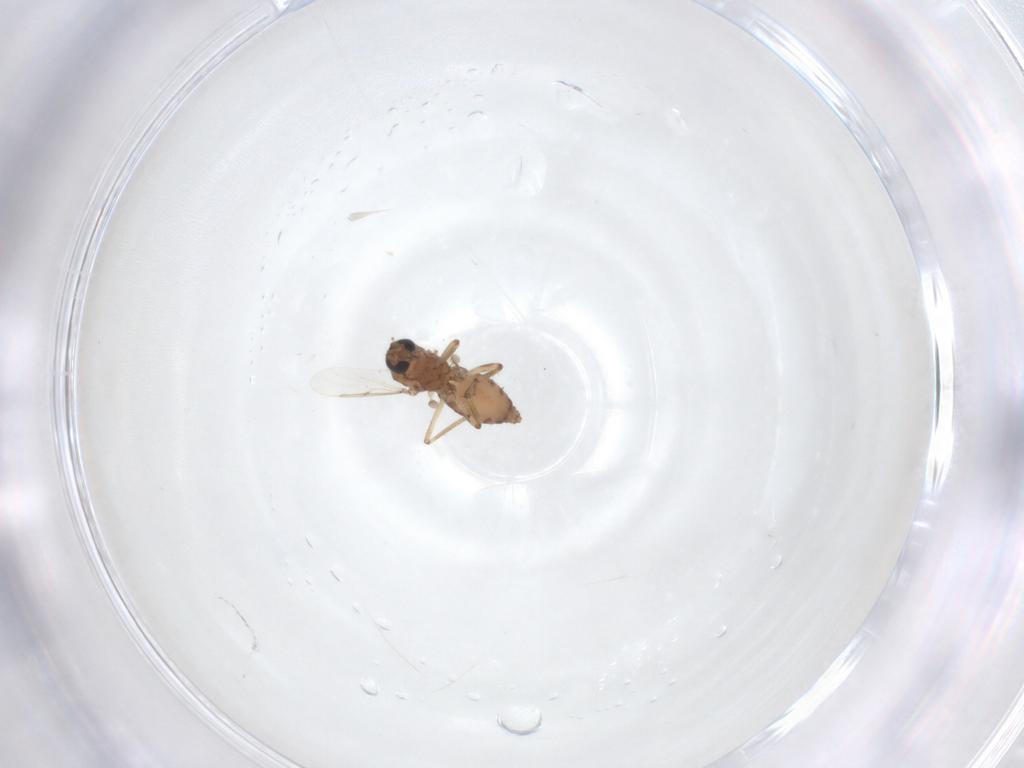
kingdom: Animalia
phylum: Arthropoda
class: Insecta
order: Diptera
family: Ceratopogonidae
